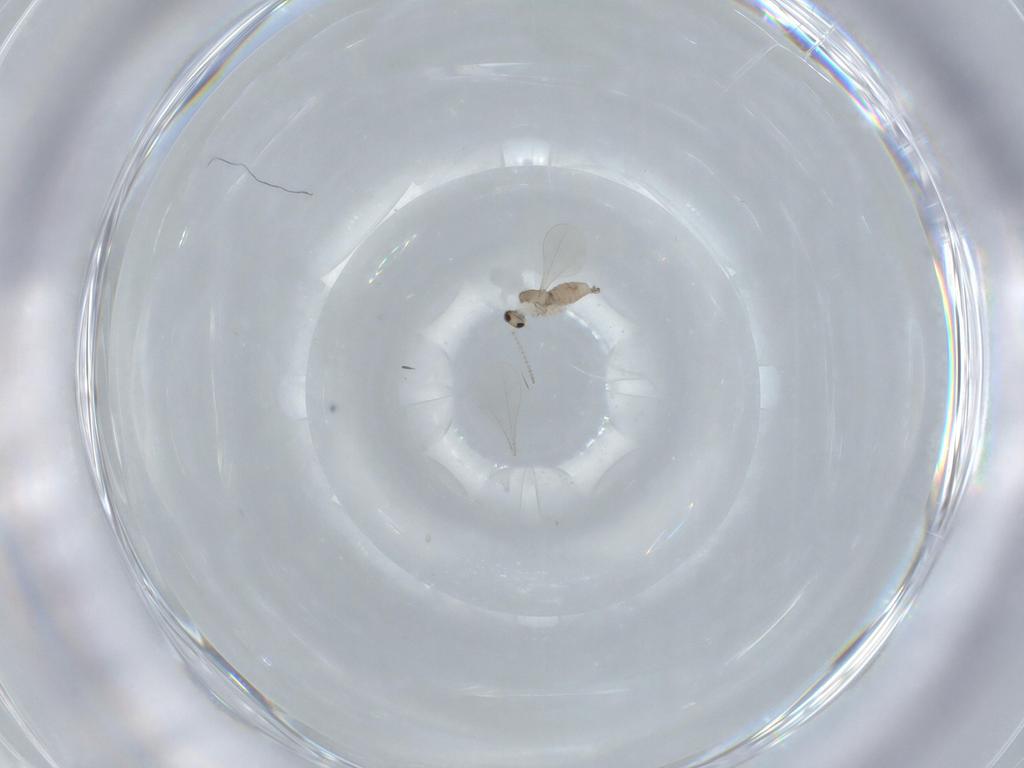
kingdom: Animalia
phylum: Arthropoda
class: Insecta
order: Diptera
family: Cecidomyiidae
